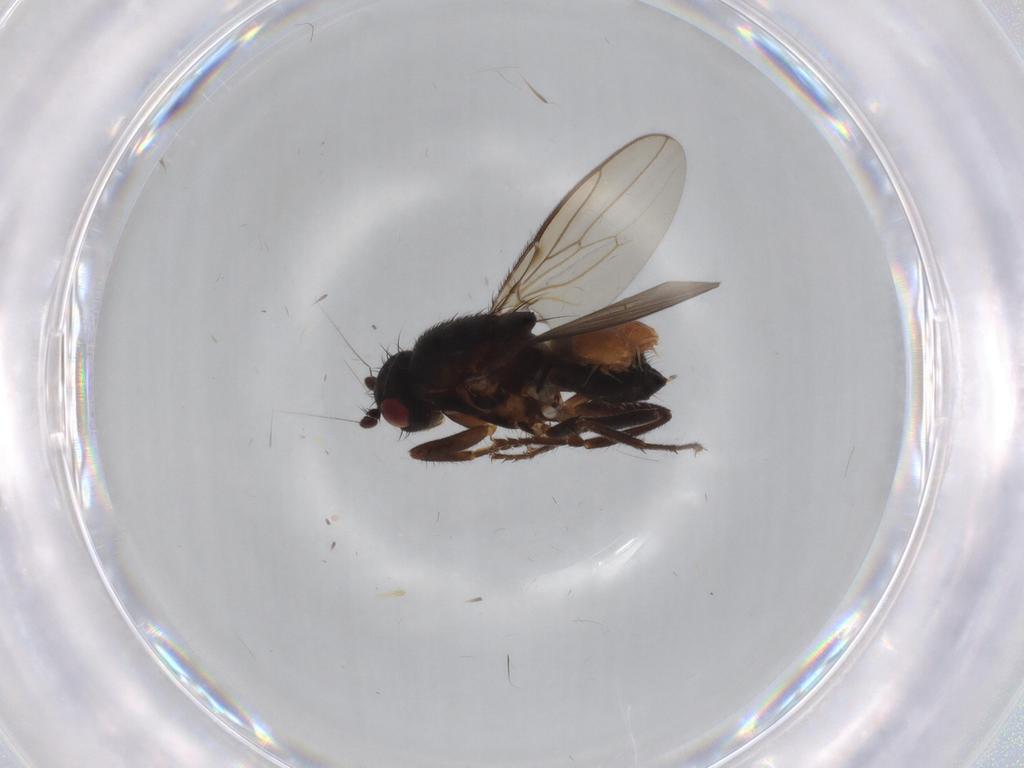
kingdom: Animalia
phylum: Arthropoda
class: Insecta
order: Diptera
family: Sphaeroceridae
